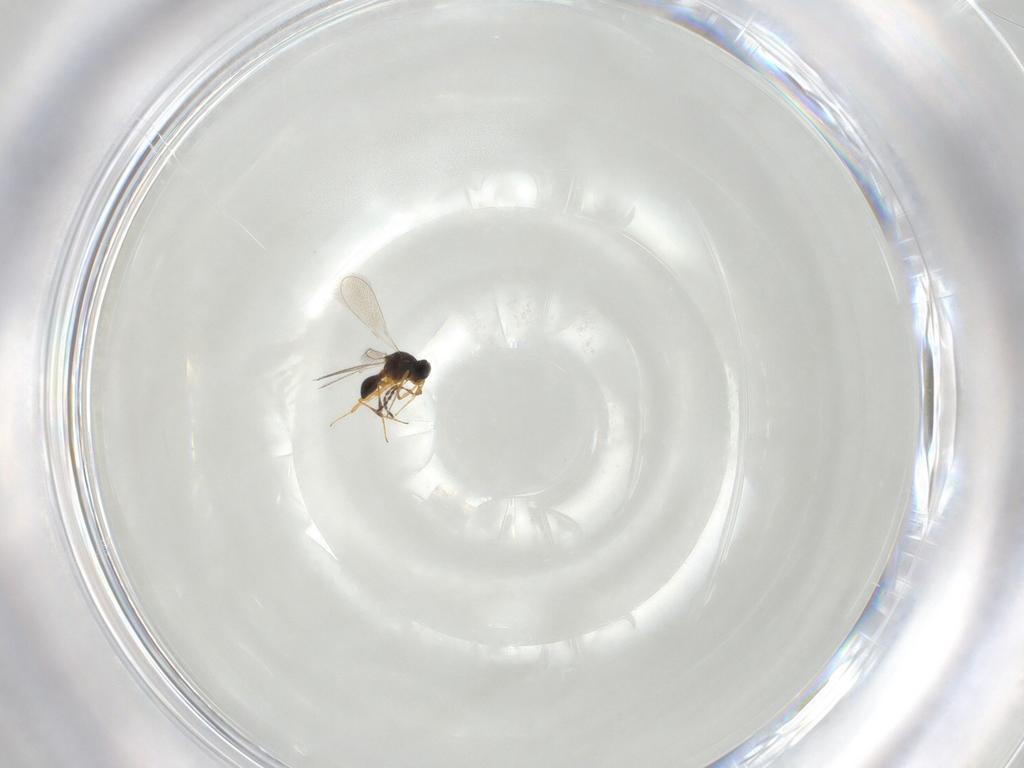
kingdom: Animalia
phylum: Arthropoda
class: Insecta
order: Hymenoptera
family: Platygastridae
